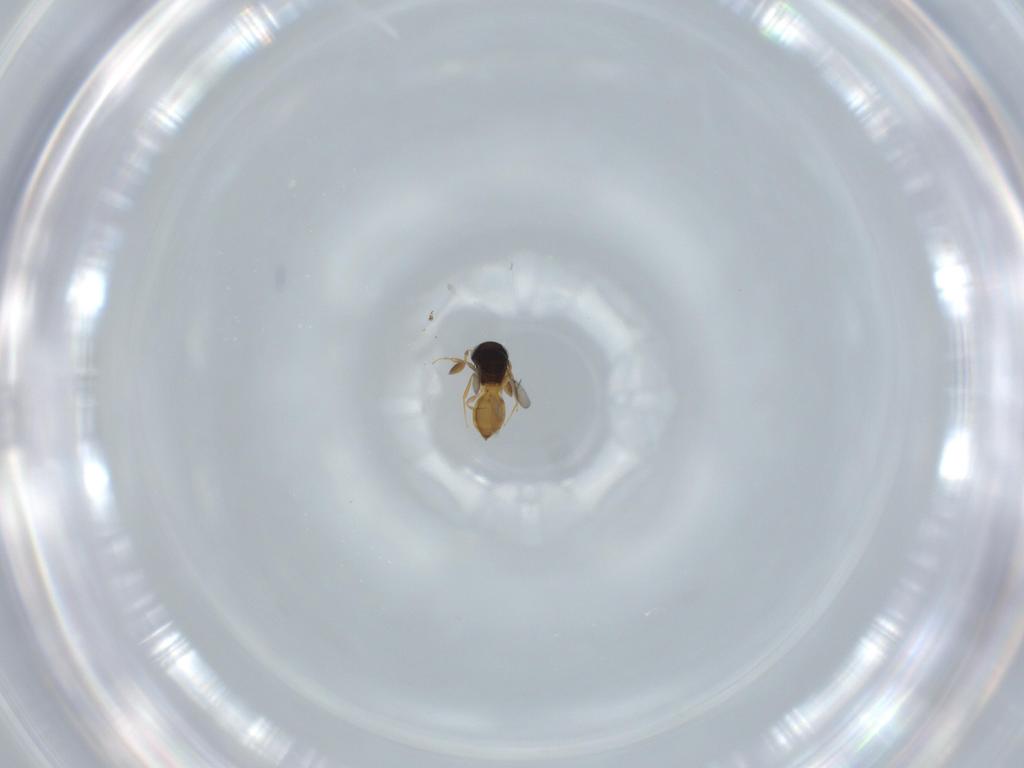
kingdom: Animalia
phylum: Arthropoda
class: Insecta
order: Hymenoptera
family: Scelionidae
